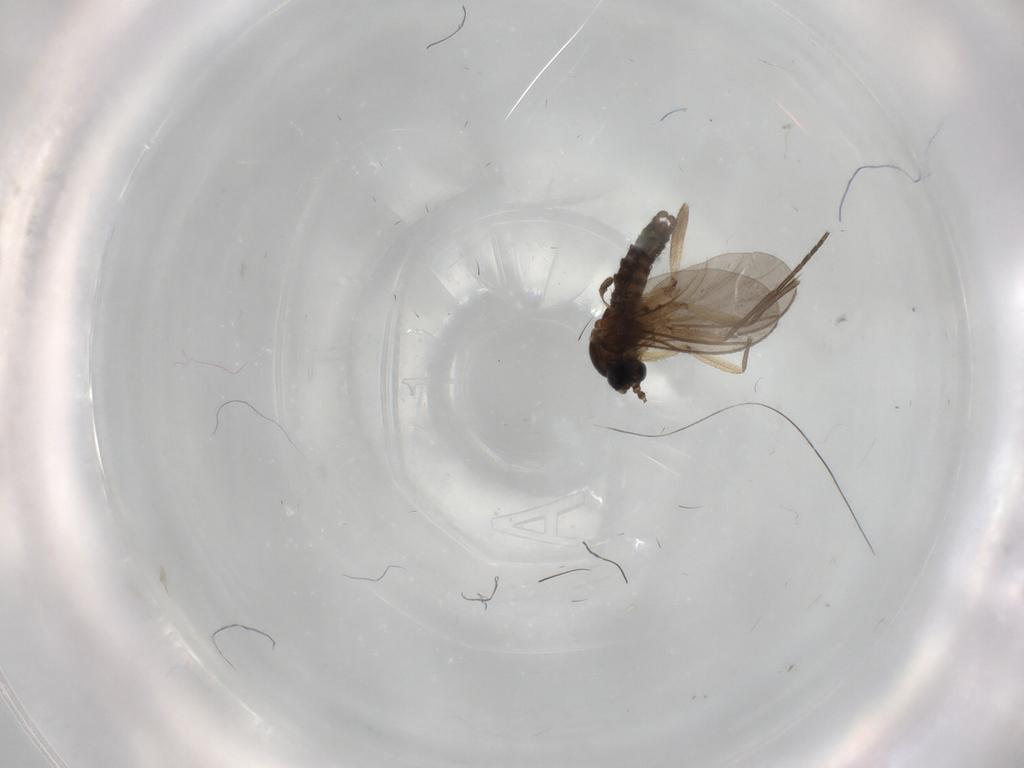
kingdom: Animalia
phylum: Arthropoda
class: Insecta
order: Diptera
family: Sciaridae
